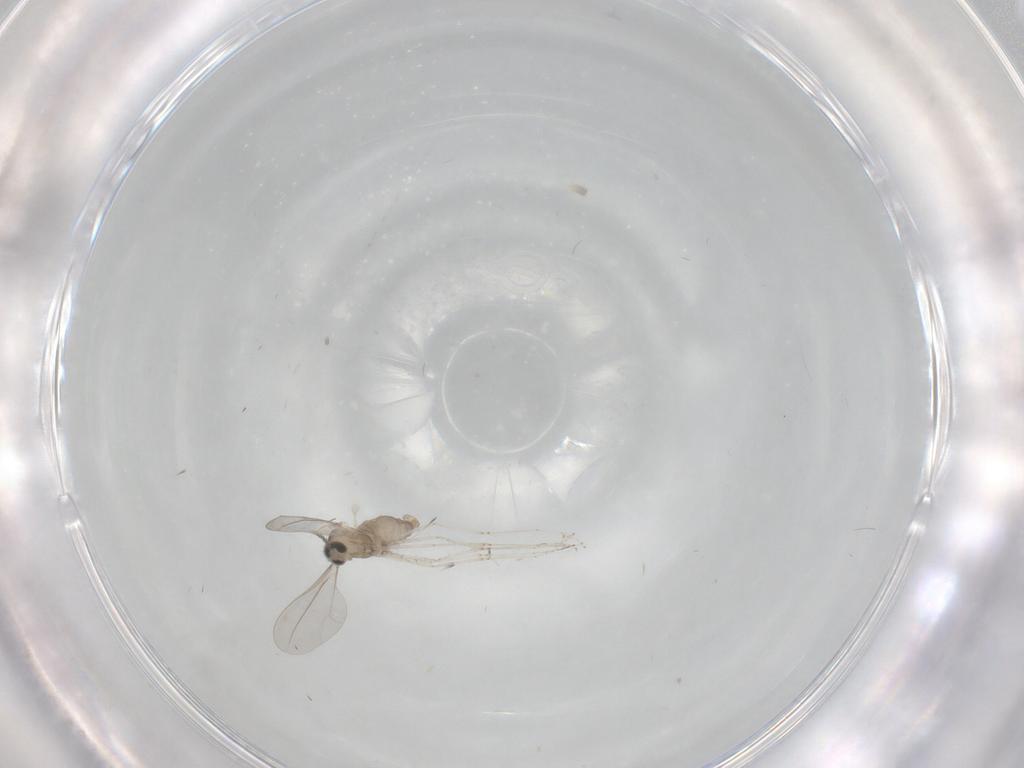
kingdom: Animalia
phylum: Arthropoda
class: Insecta
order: Diptera
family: Cecidomyiidae
